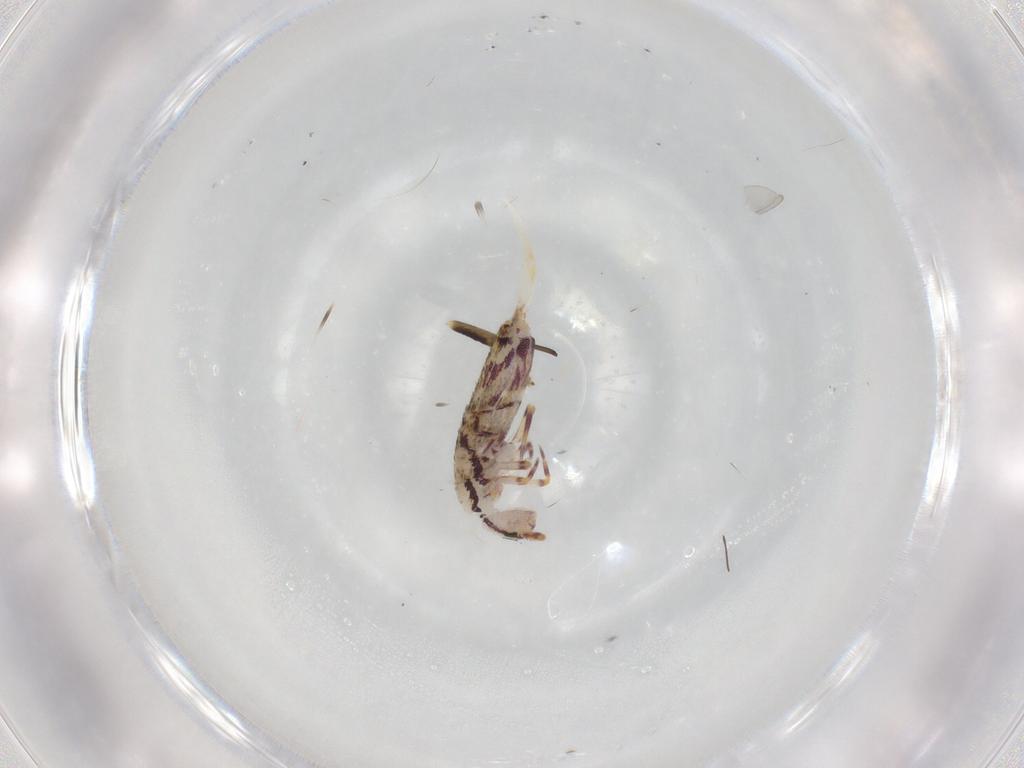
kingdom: Animalia
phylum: Arthropoda
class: Collembola
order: Entomobryomorpha
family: Entomobryidae
